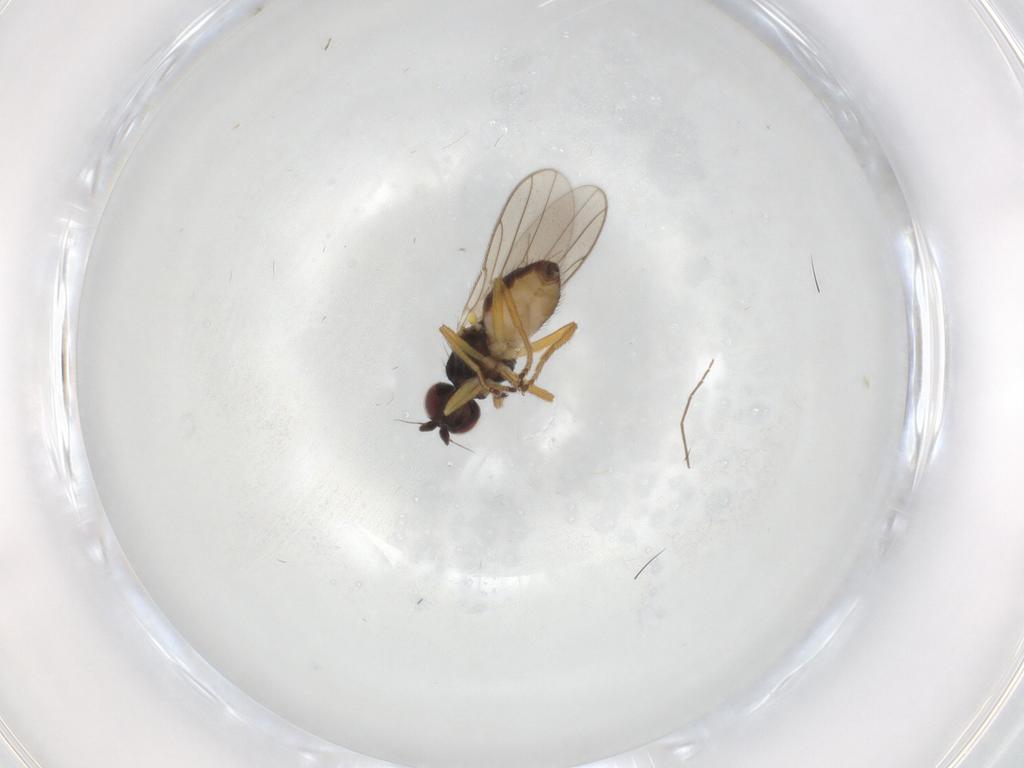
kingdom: Animalia
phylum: Arthropoda
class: Insecta
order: Diptera
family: Chloropidae
